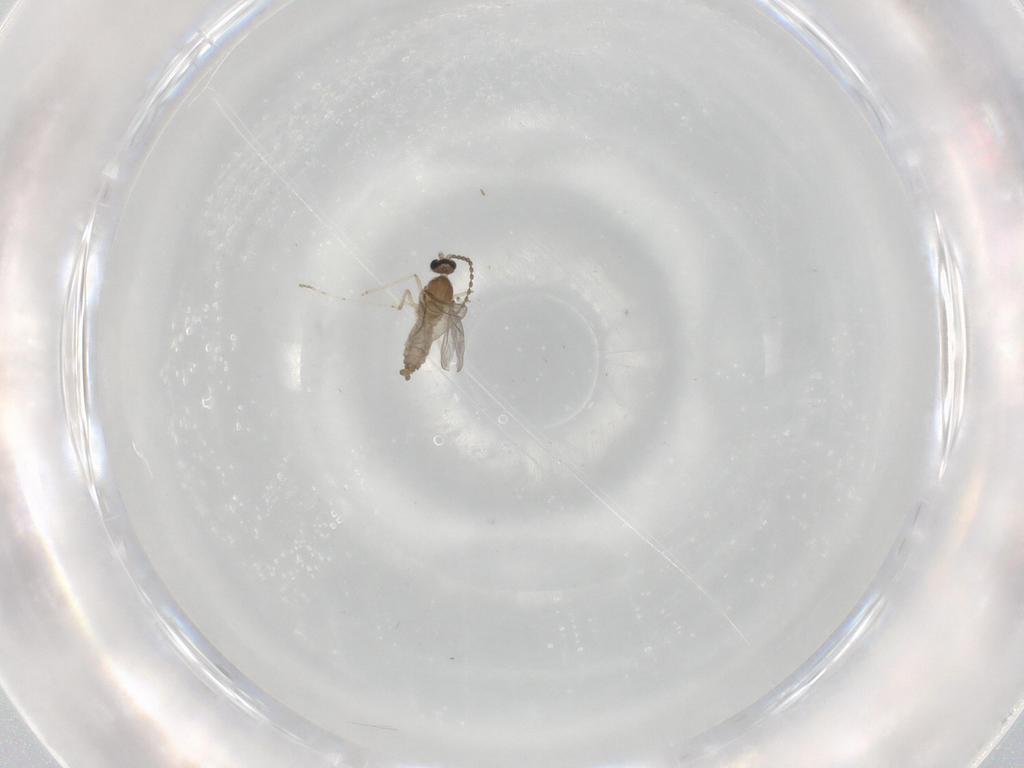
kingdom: Animalia
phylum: Arthropoda
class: Insecta
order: Diptera
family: Cecidomyiidae
